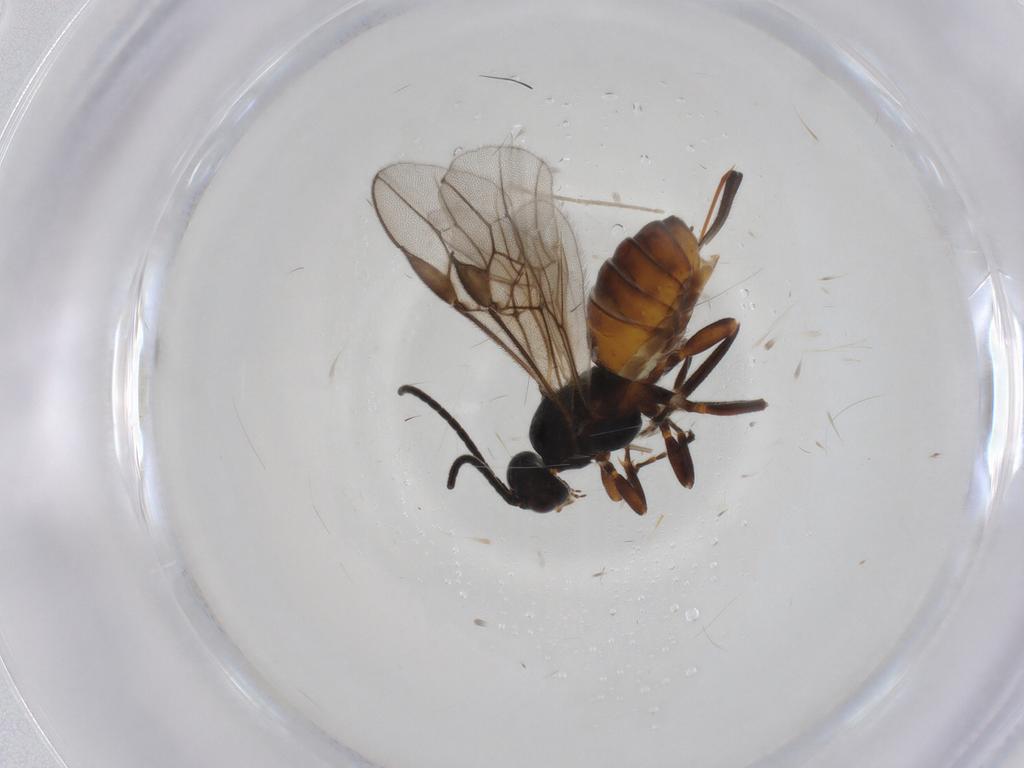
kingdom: Animalia
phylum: Arthropoda
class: Insecta
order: Hymenoptera
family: Braconidae
